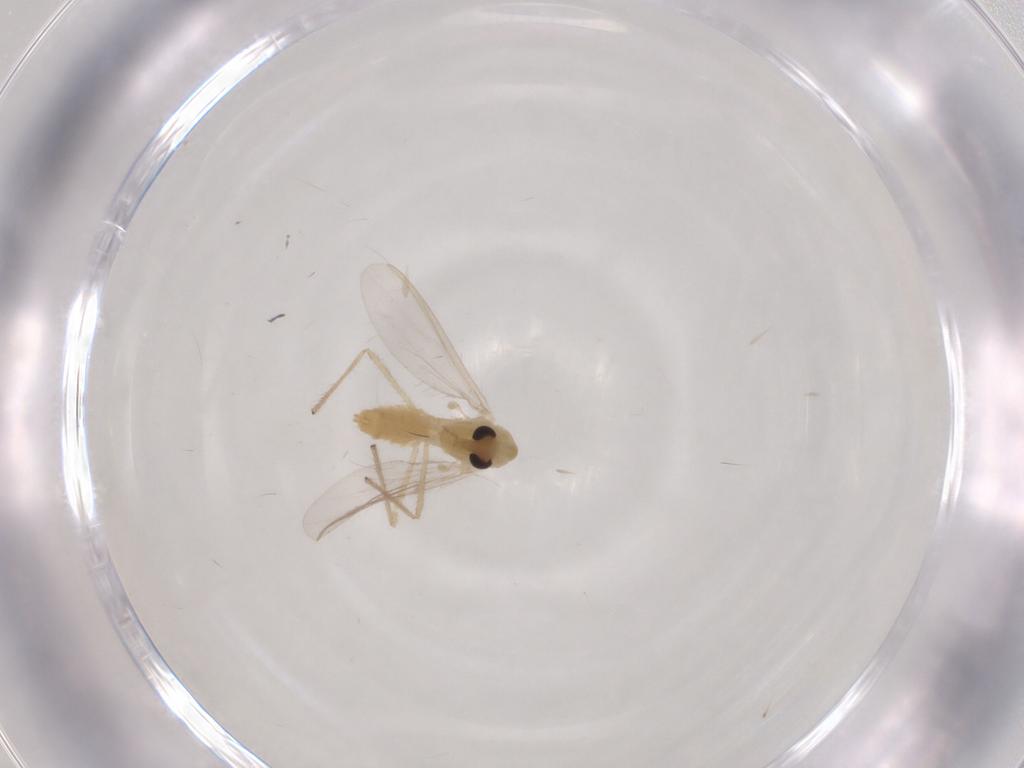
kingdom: Animalia
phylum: Arthropoda
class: Insecta
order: Diptera
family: Chironomidae
